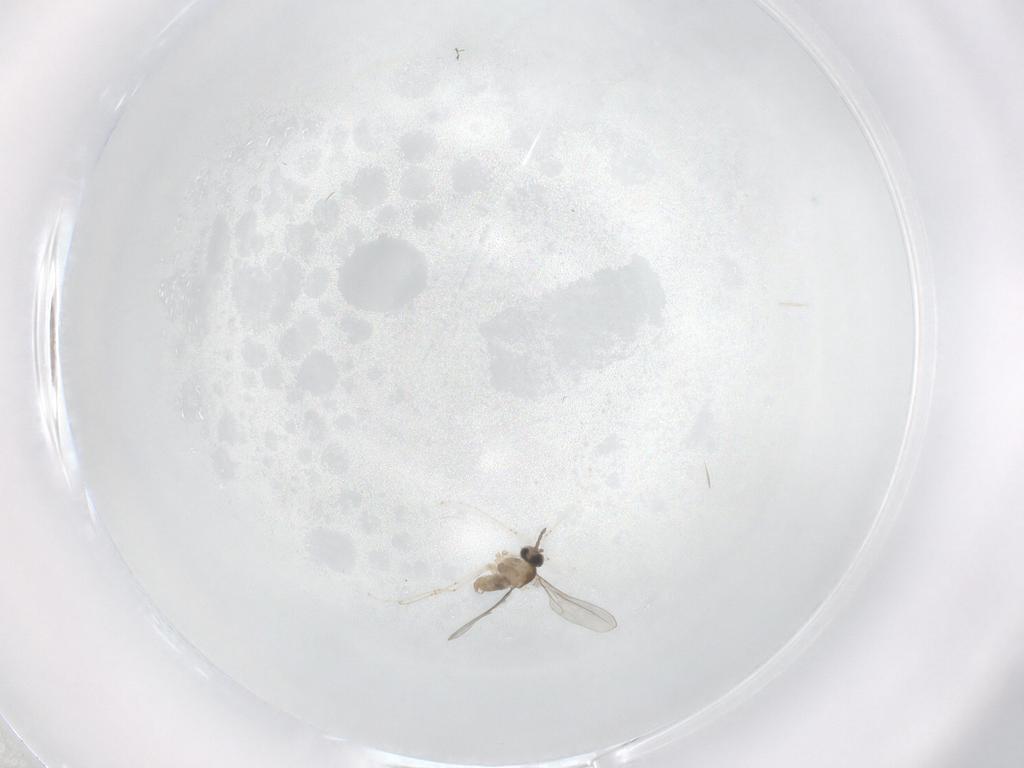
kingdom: Animalia
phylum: Arthropoda
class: Insecta
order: Diptera
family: Cecidomyiidae
